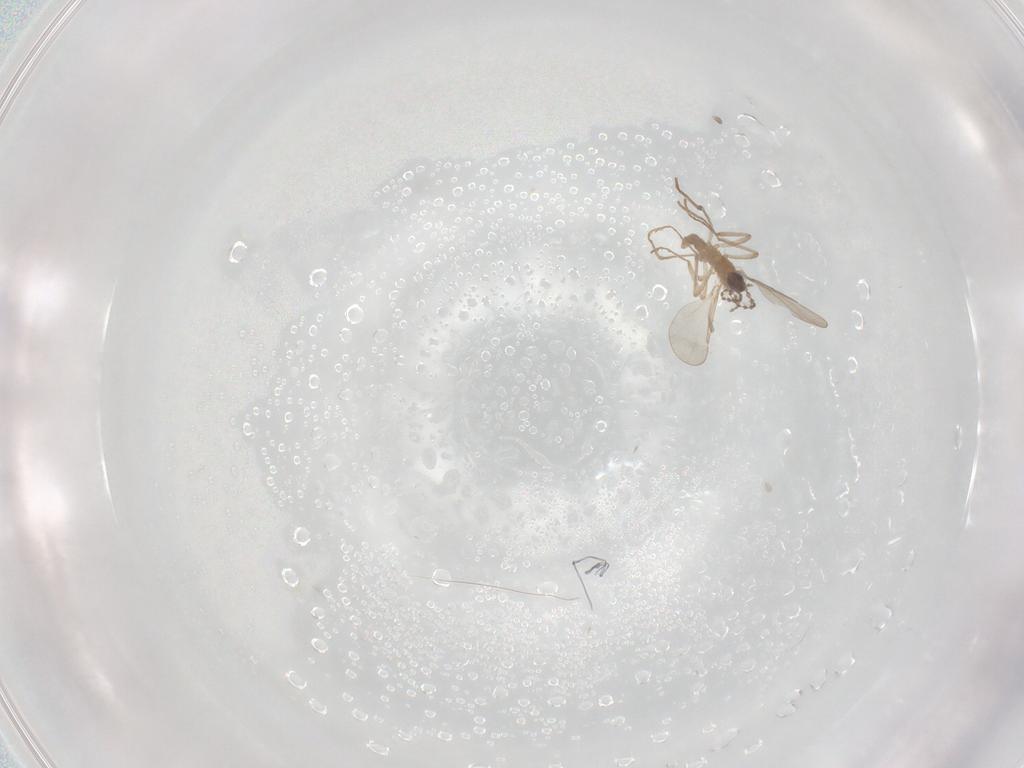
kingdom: Animalia
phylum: Arthropoda
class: Insecta
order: Diptera
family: Cecidomyiidae
